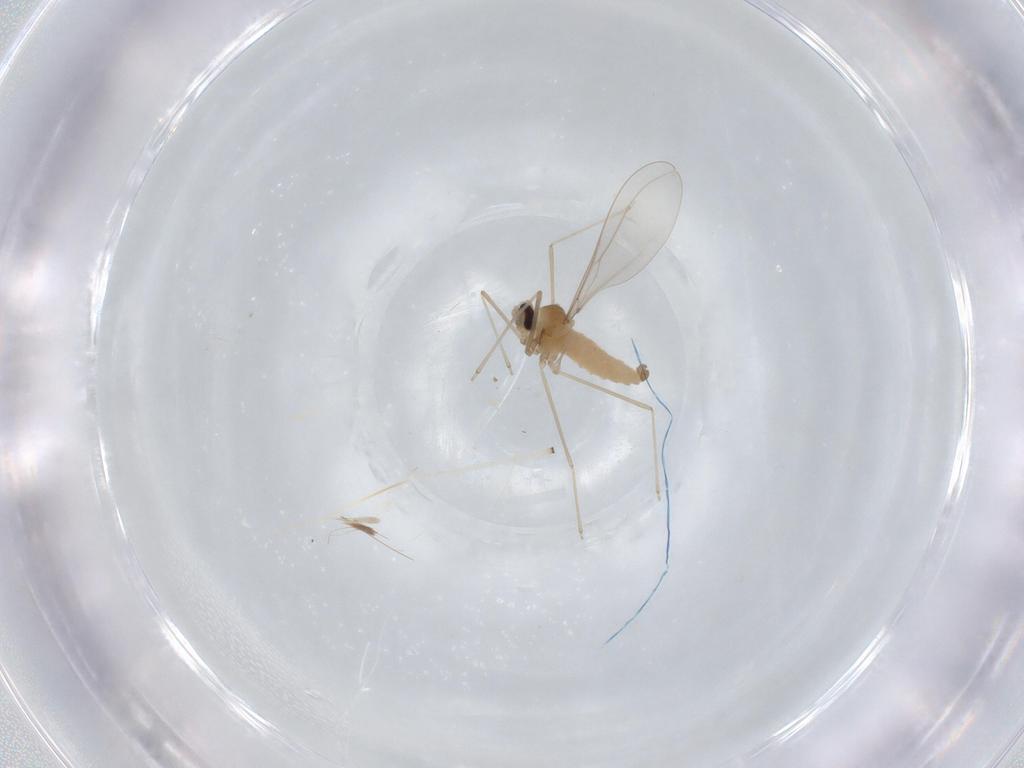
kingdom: Animalia
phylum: Arthropoda
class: Insecta
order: Diptera
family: Cecidomyiidae
